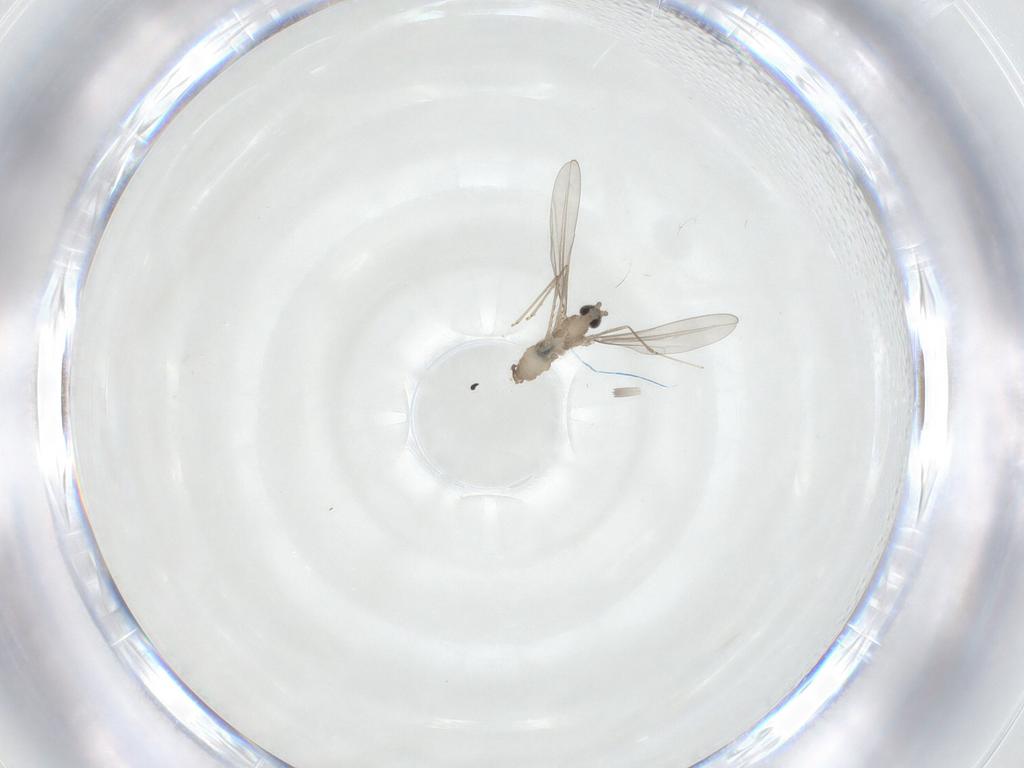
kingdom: Animalia
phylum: Arthropoda
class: Insecta
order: Diptera
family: Cecidomyiidae
